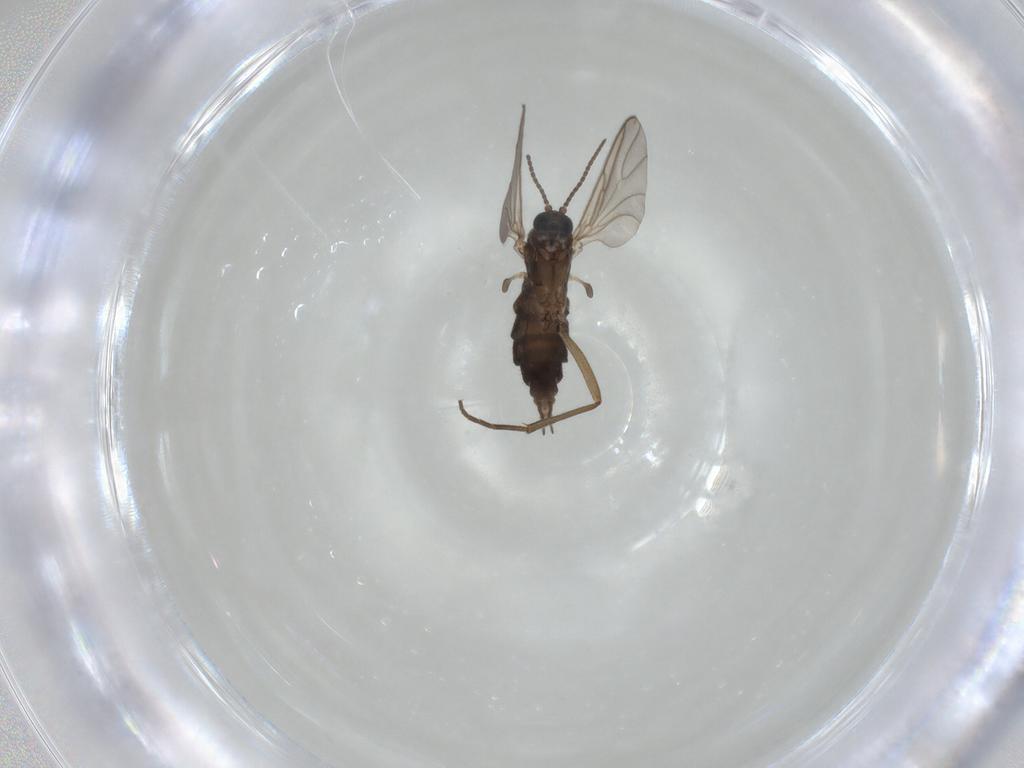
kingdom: Animalia
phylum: Arthropoda
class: Insecta
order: Diptera
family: Sciaridae
